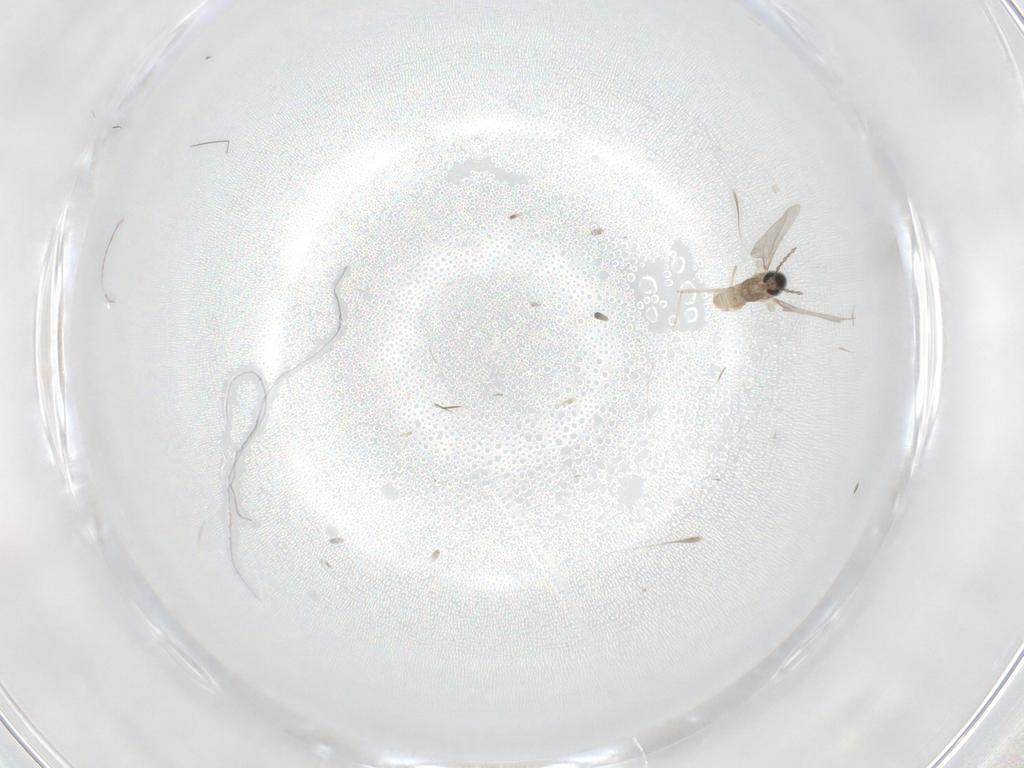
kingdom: Animalia
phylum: Arthropoda
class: Insecta
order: Diptera
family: Cecidomyiidae
